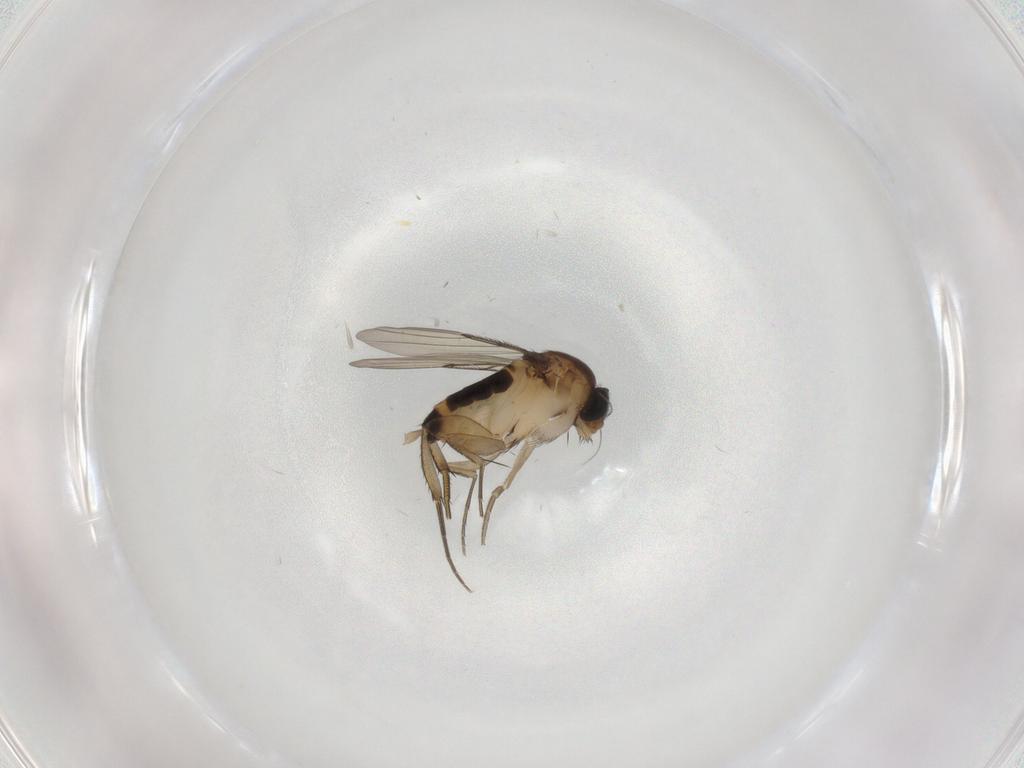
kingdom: Animalia
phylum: Arthropoda
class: Insecta
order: Diptera
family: Phoridae
